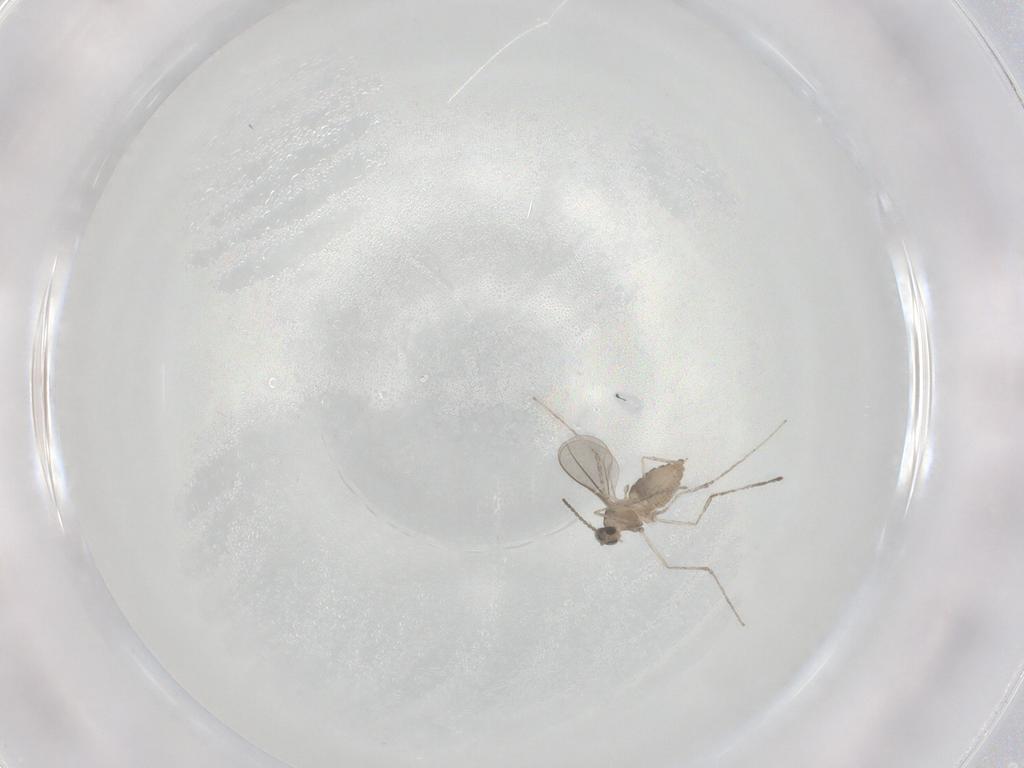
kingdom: Animalia
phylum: Arthropoda
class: Insecta
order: Diptera
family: Cecidomyiidae
